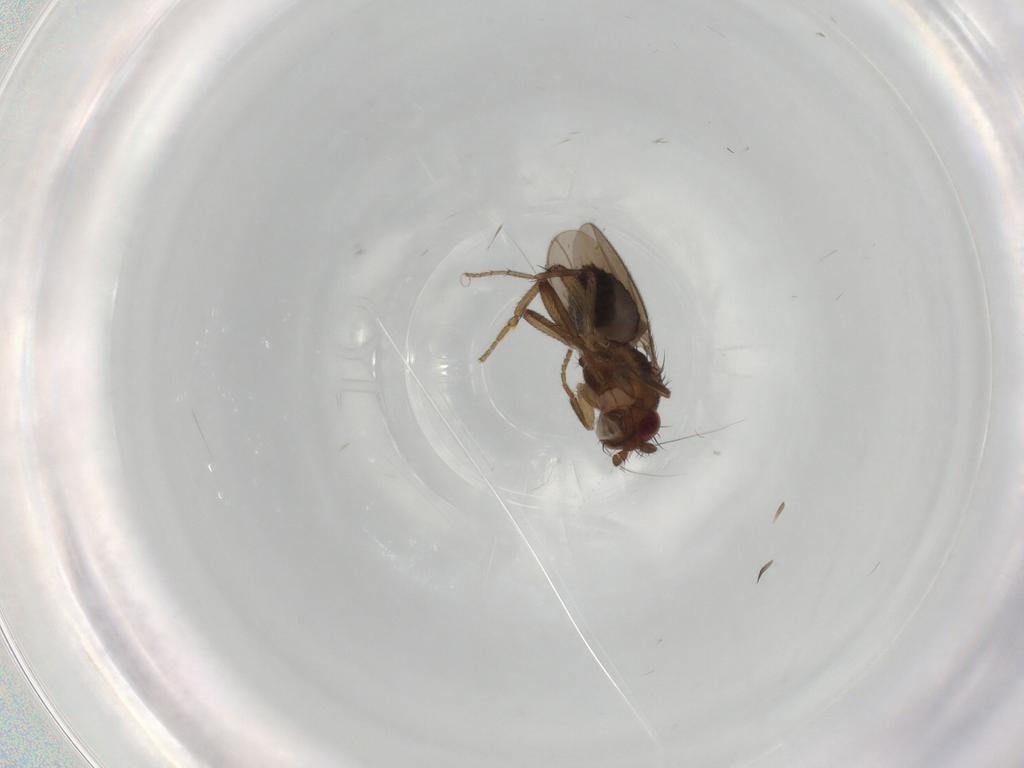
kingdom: Animalia
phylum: Arthropoda
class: Insecta
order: Diptera
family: Sphaeroceridae
